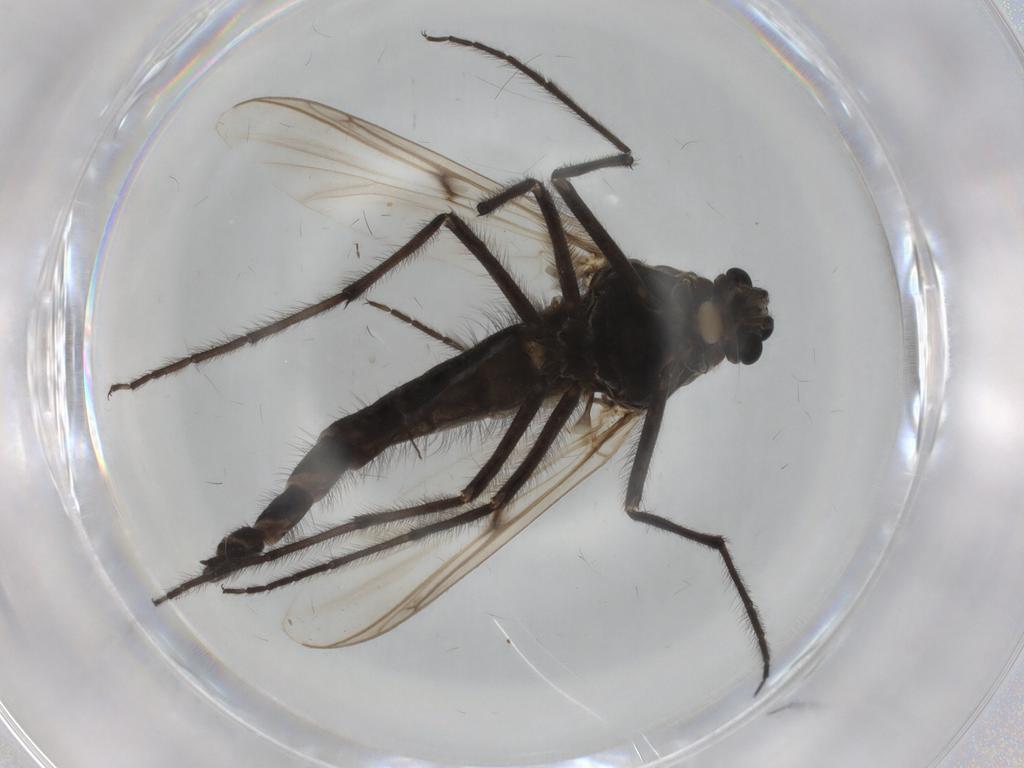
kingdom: Animalia
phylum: Arthropoda
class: Insecta
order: Diptera
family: Chironomidae
